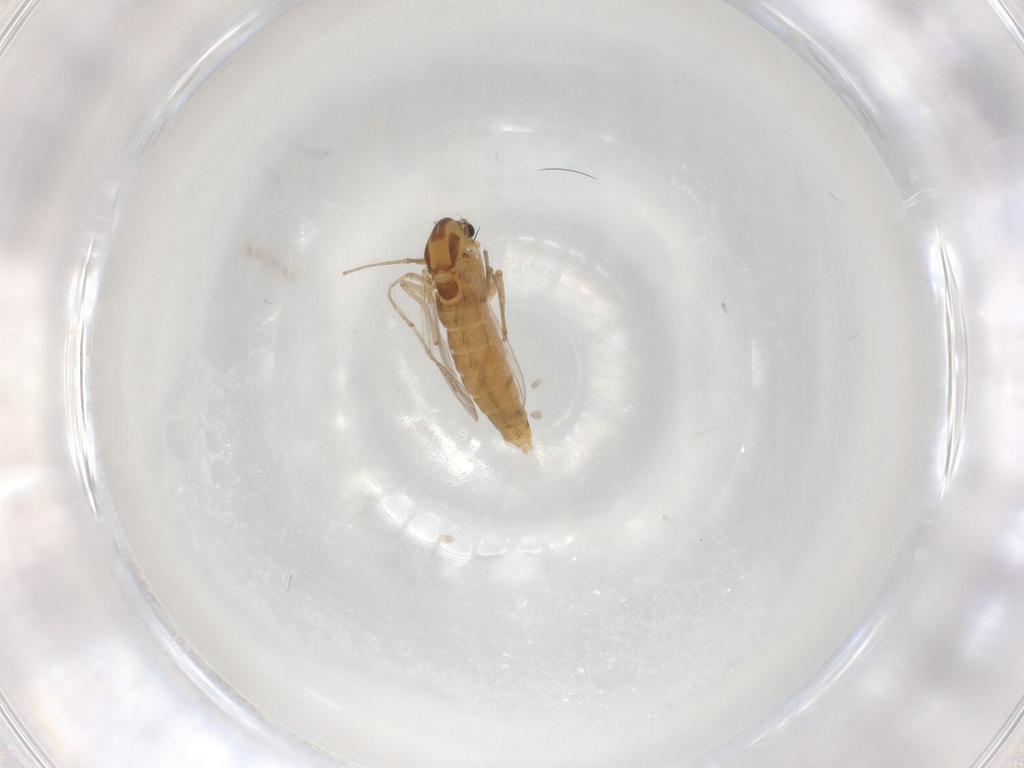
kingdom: Animalia
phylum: Arthropoda
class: Insecta
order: Diptera
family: Chironomidae
